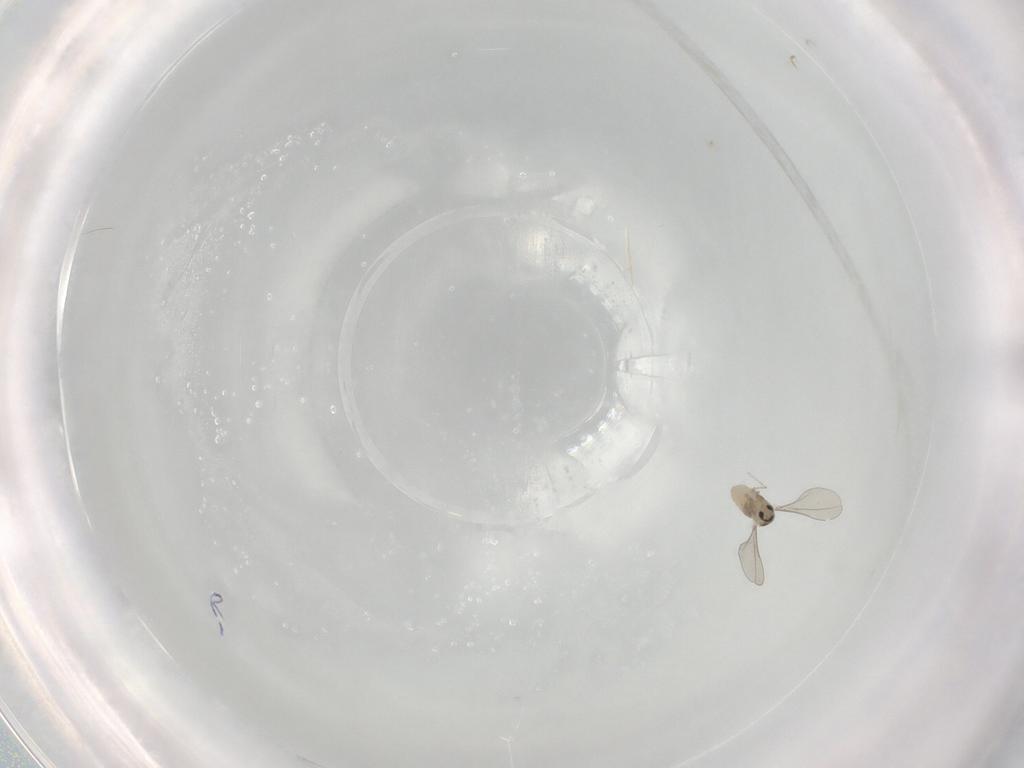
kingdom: Animalia
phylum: Arthropoda
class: Insecta
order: Diptera
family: Cecidomyiidae
